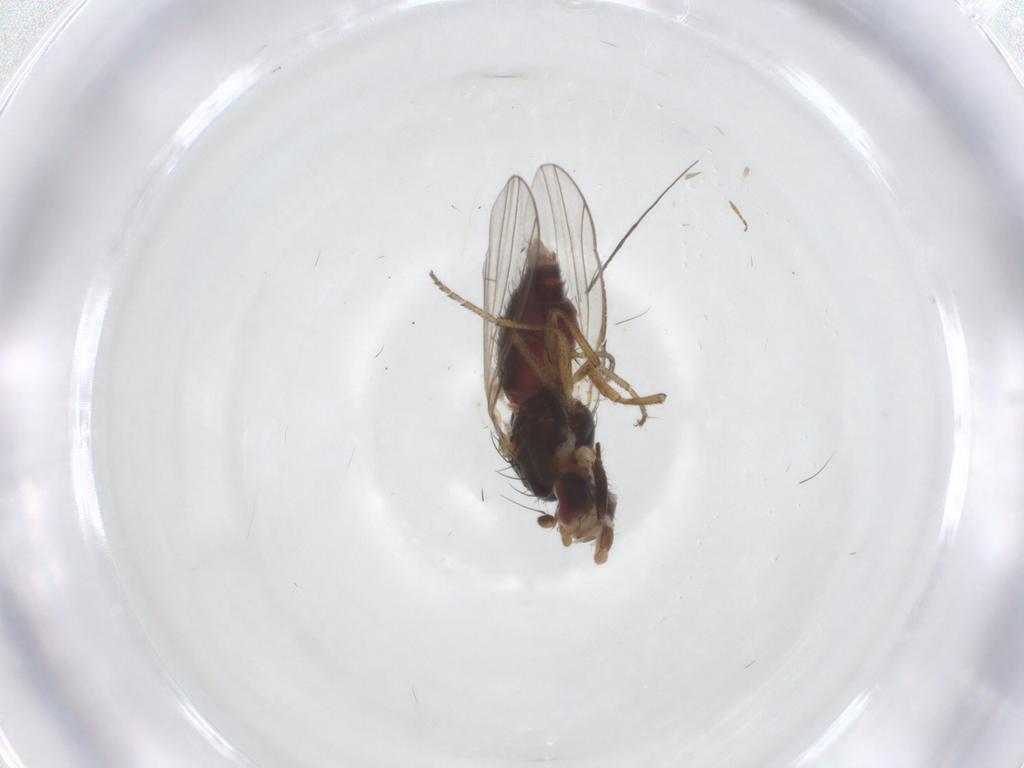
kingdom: Animalia
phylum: Arthropoda
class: Insecta
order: Diptera
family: Heleomyzidae
